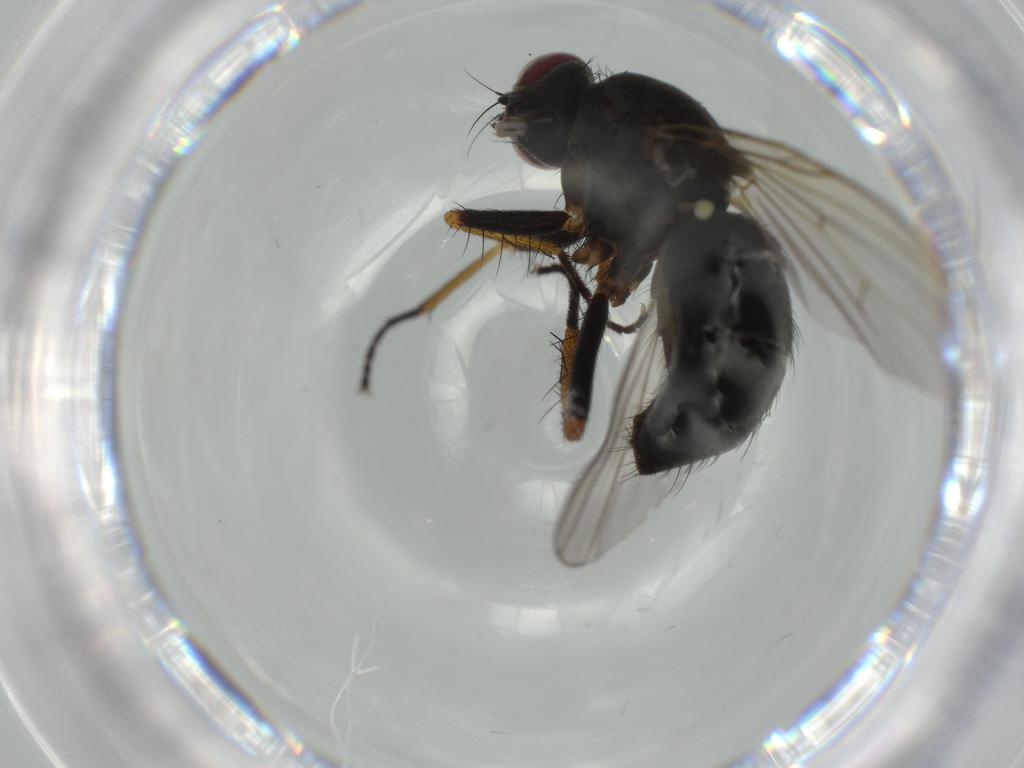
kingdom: Animalia
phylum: Arthropoda
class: Insecta
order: Diptera
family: Muscidae
